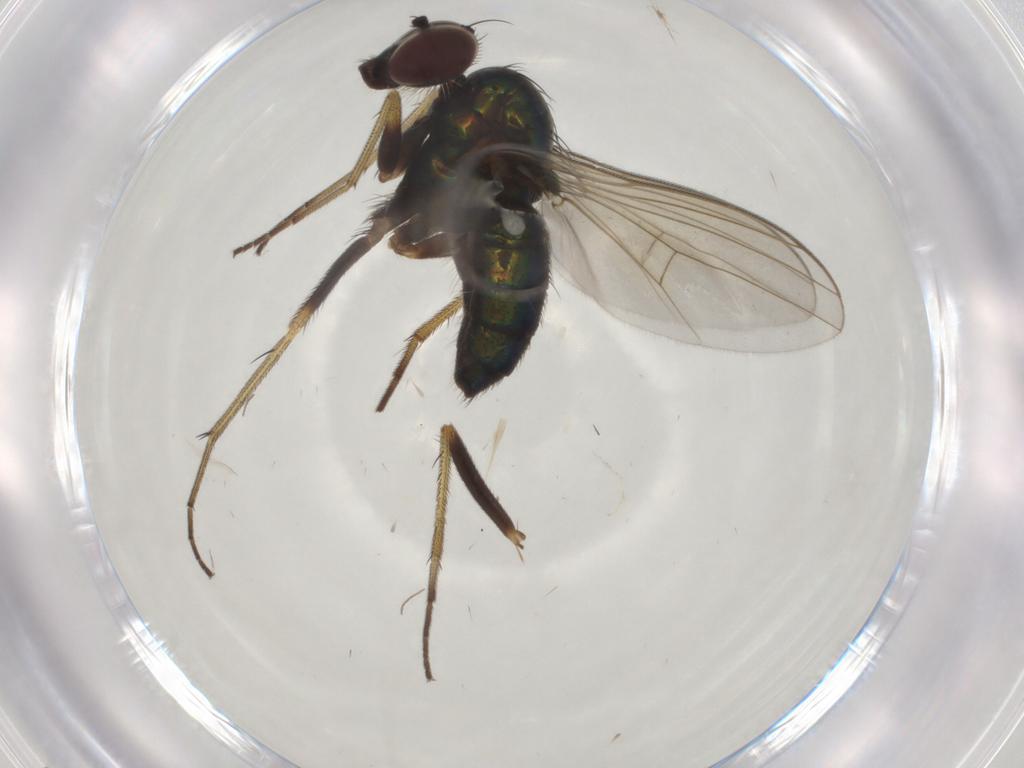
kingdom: Animalia
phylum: Arthropoda
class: Insecta
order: Diptera
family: Dolichopodidae
